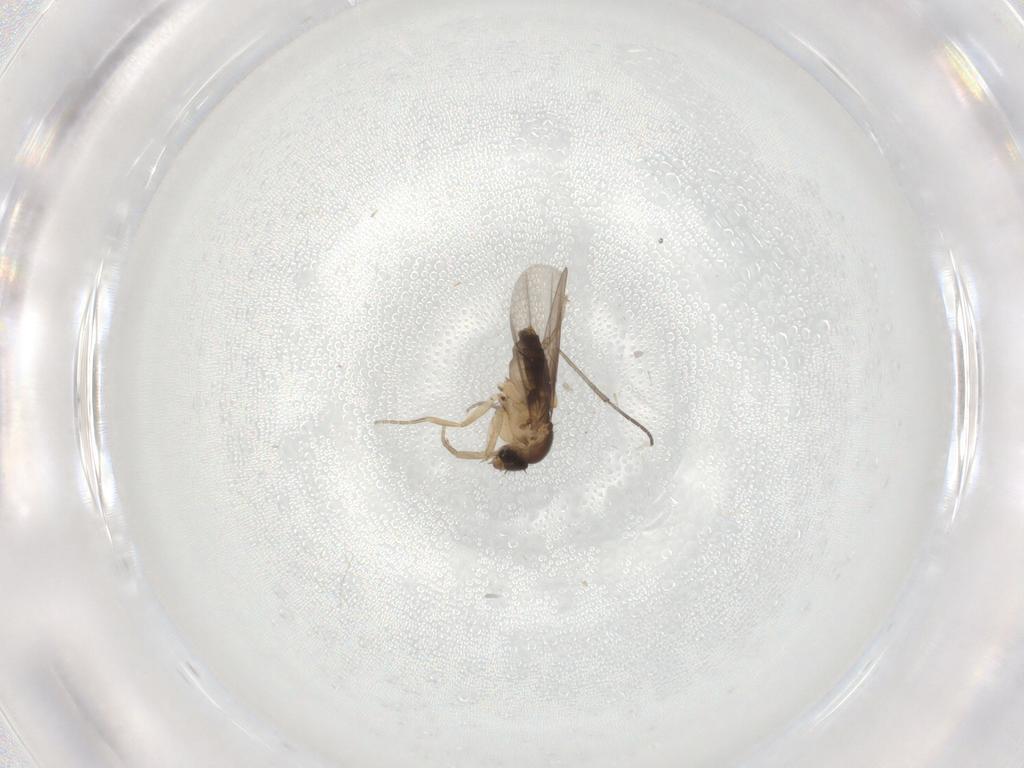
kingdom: Animalia
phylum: Arthropoda
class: Insecta
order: Diptera
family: Phoridae
